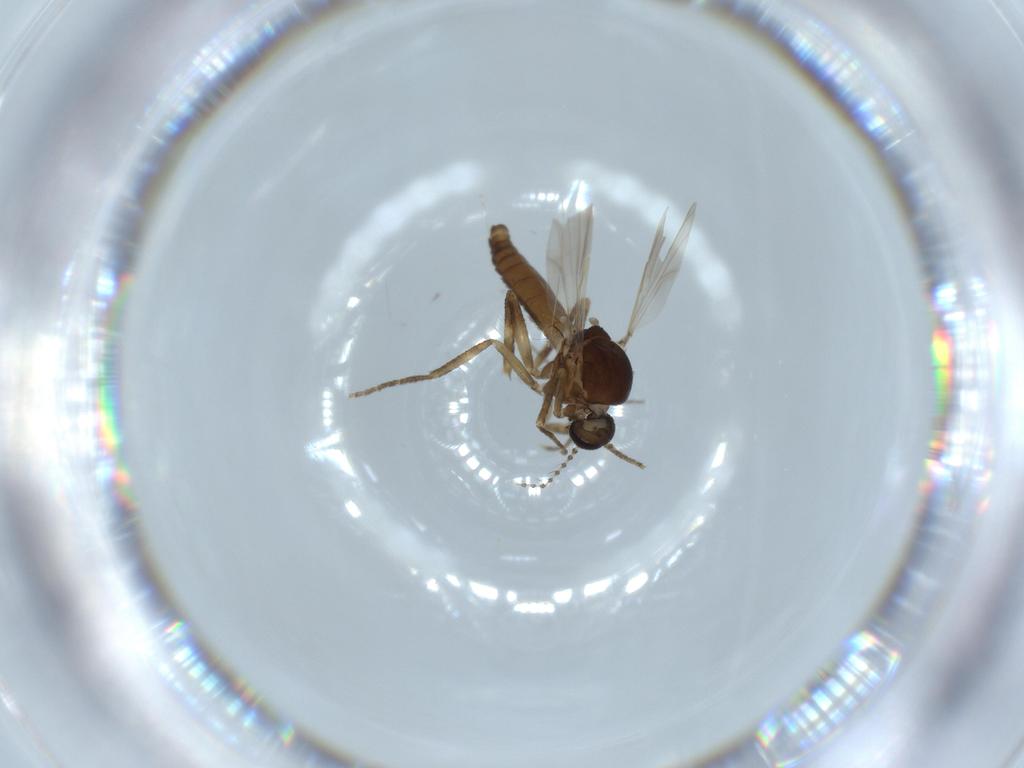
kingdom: Animalia
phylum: Arthropoda
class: Insecta
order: Diptera
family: Ceratopogonidae
